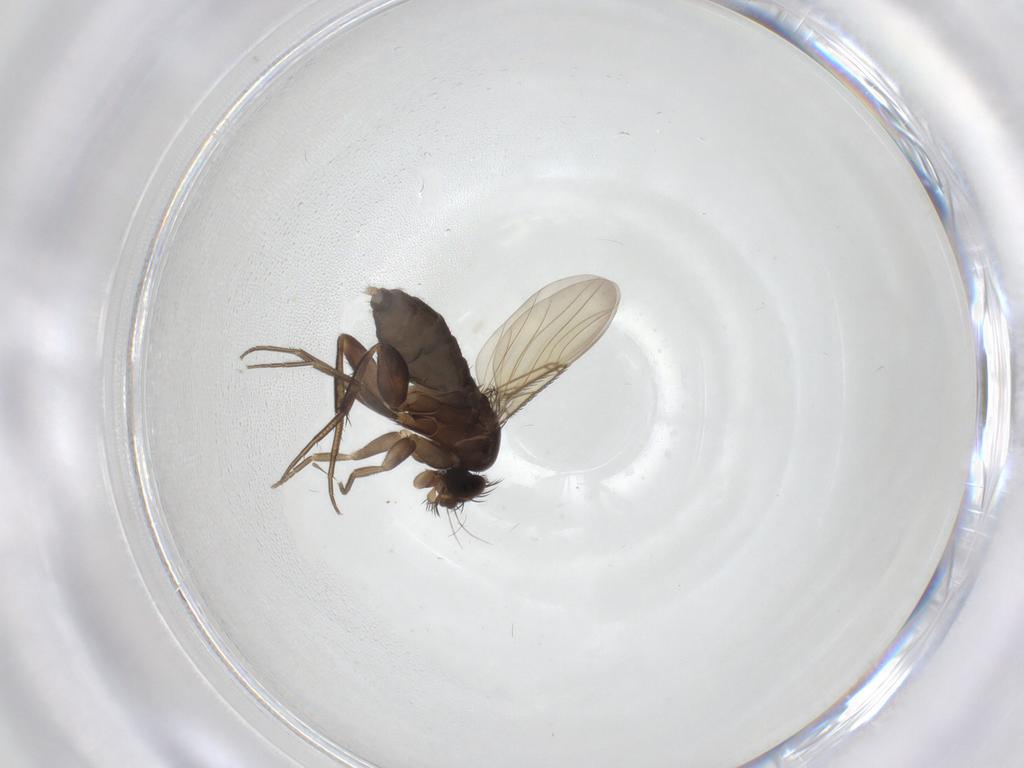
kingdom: Animalia
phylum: Arthropoda
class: Insecta
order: Diptera
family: Phoridae
